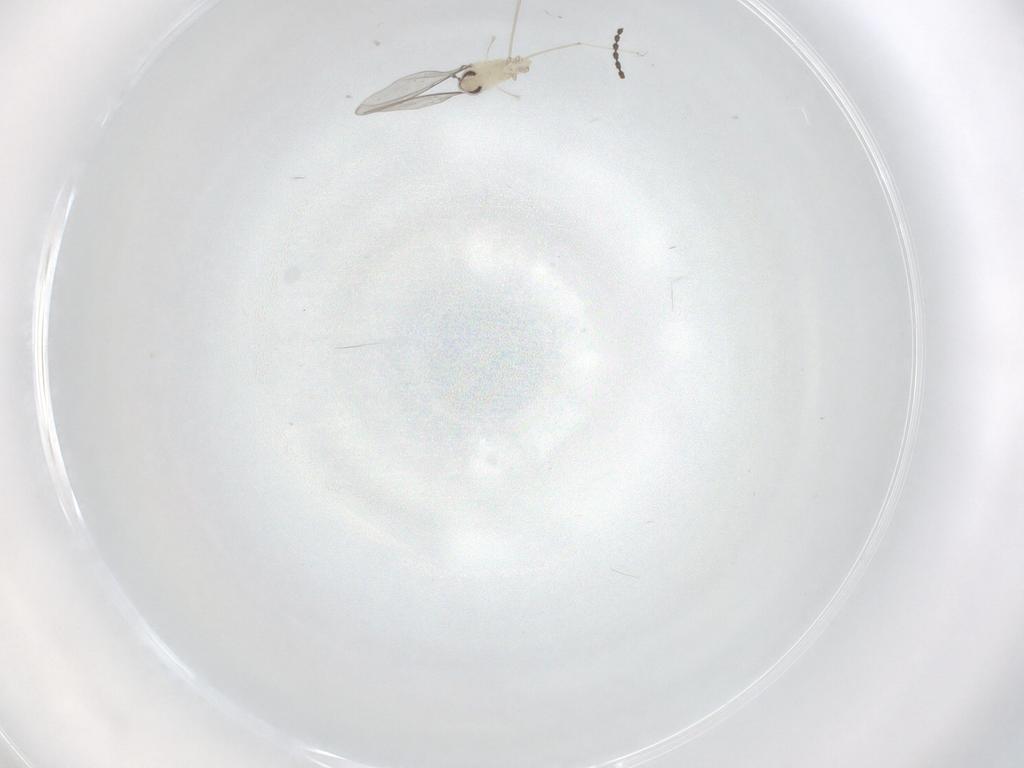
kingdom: Animalia
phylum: Arthropoda
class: Insecta
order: Diptera
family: Cecidomyiidae
